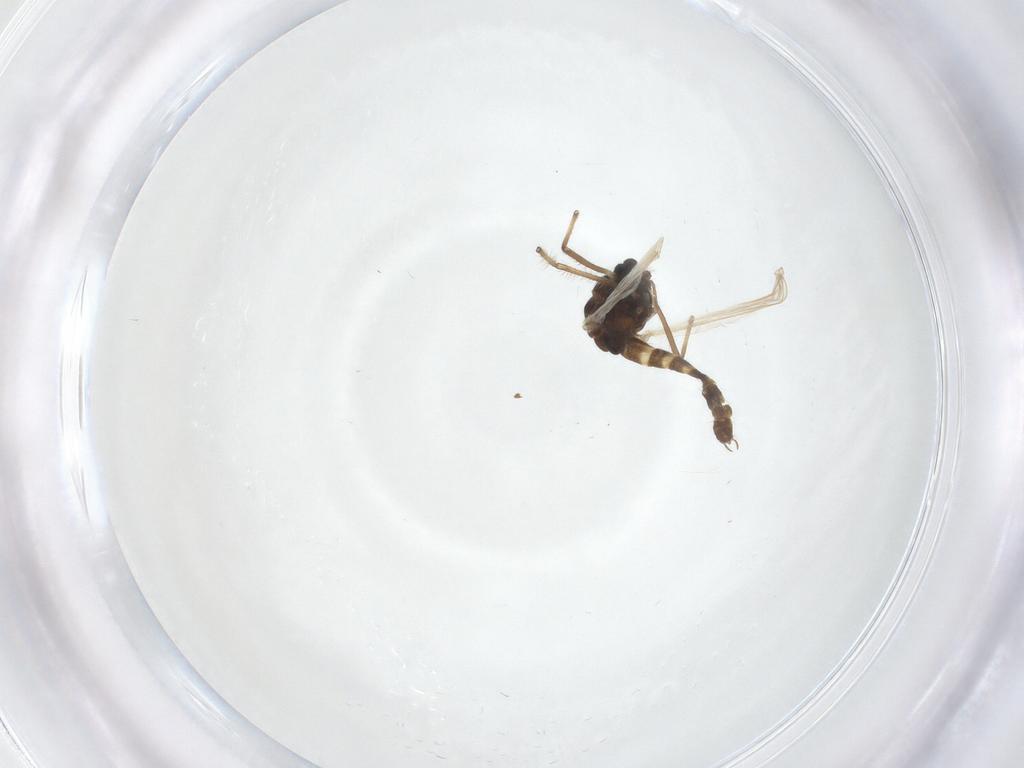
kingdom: Animalia
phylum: Arthropoda
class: Insecta
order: Diptera
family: Chironomidae
